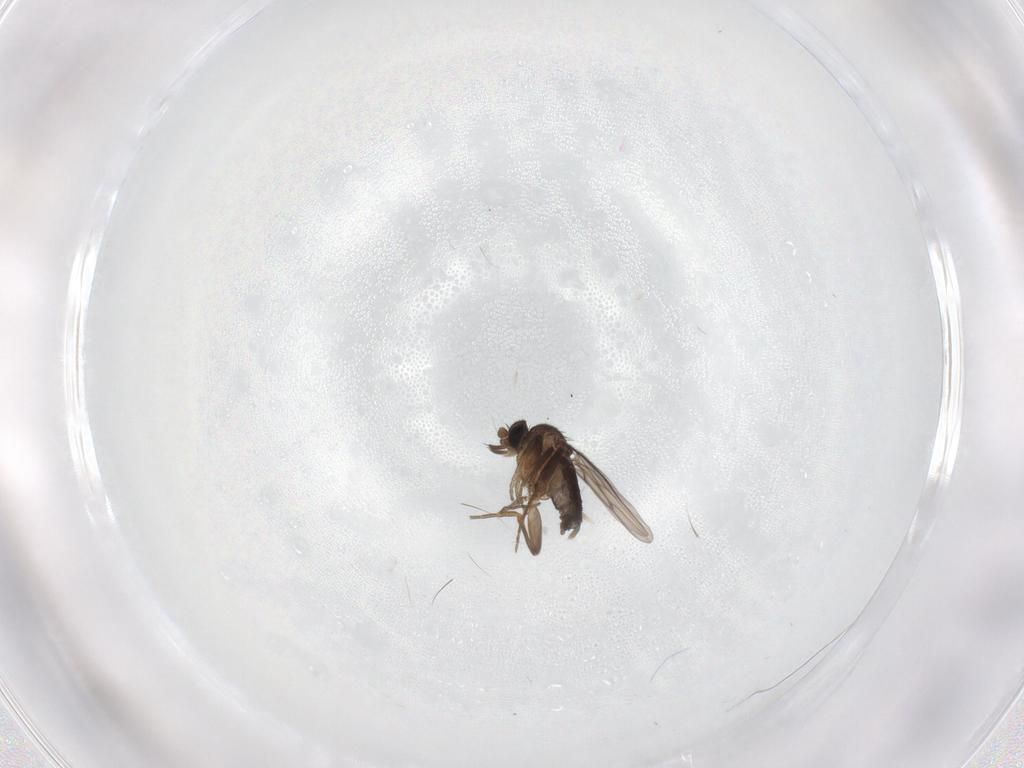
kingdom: Animalia
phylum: Arthropoda
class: Insecta
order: Diptera
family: Phoridae
